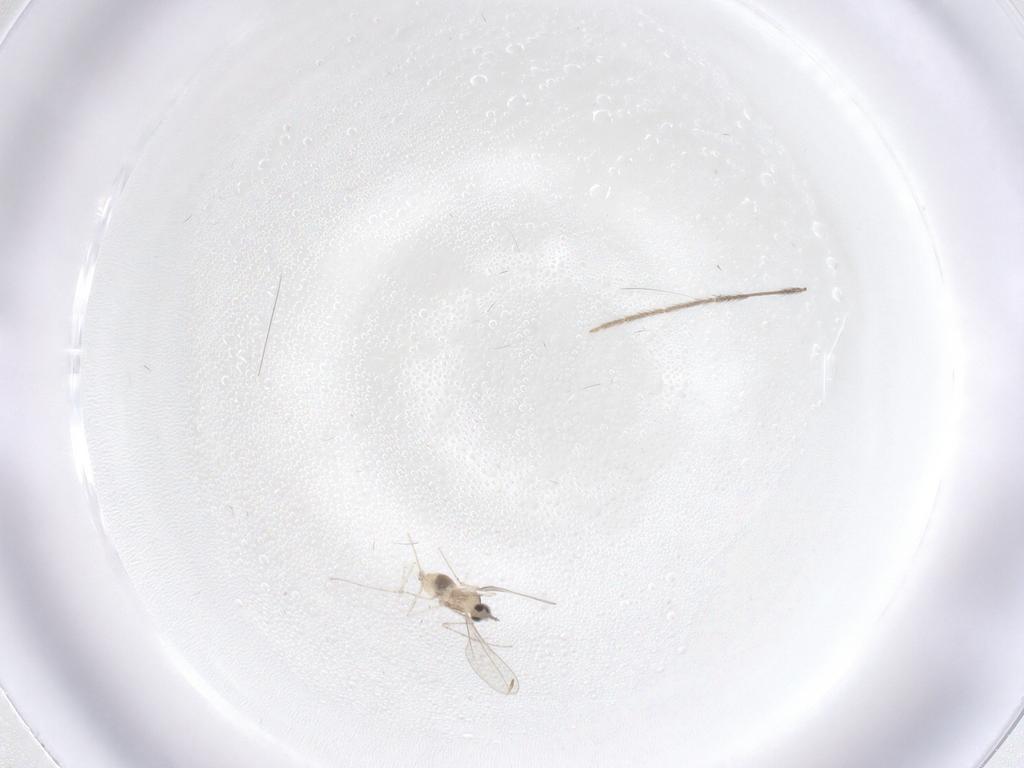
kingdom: Animalia
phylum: Arthropoda
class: Insecta
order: Diptera
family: Cecidomyiidae
